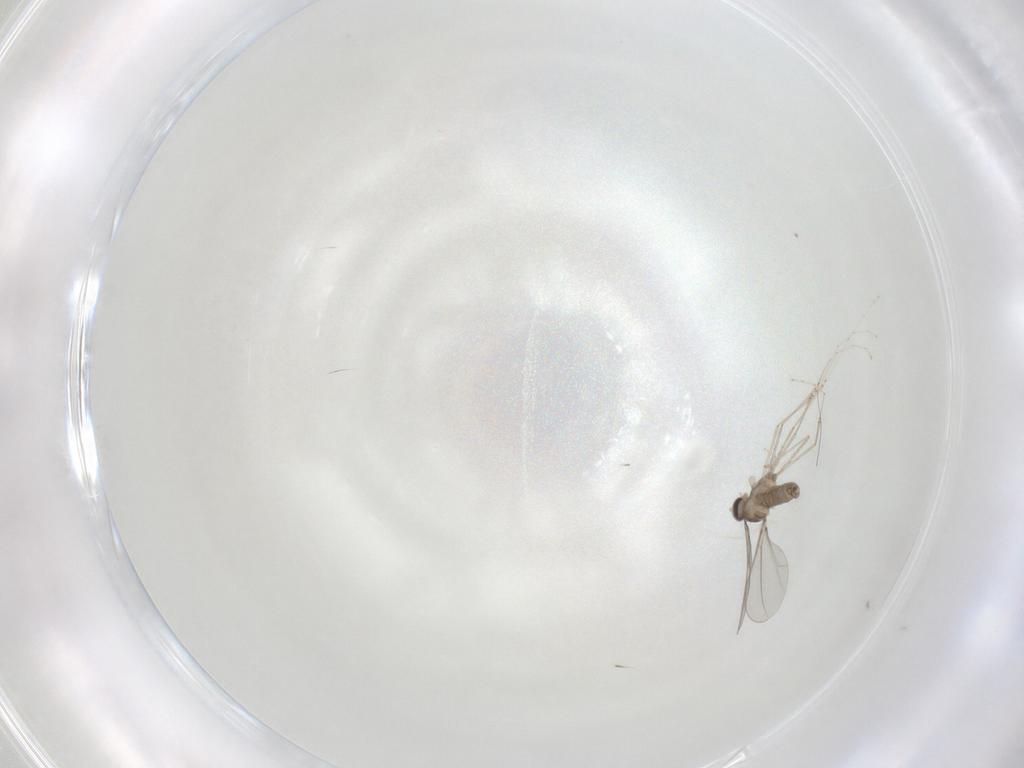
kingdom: Animalia
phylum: Arthropoda
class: Insecta
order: Diptera
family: Cecidomyiidae
